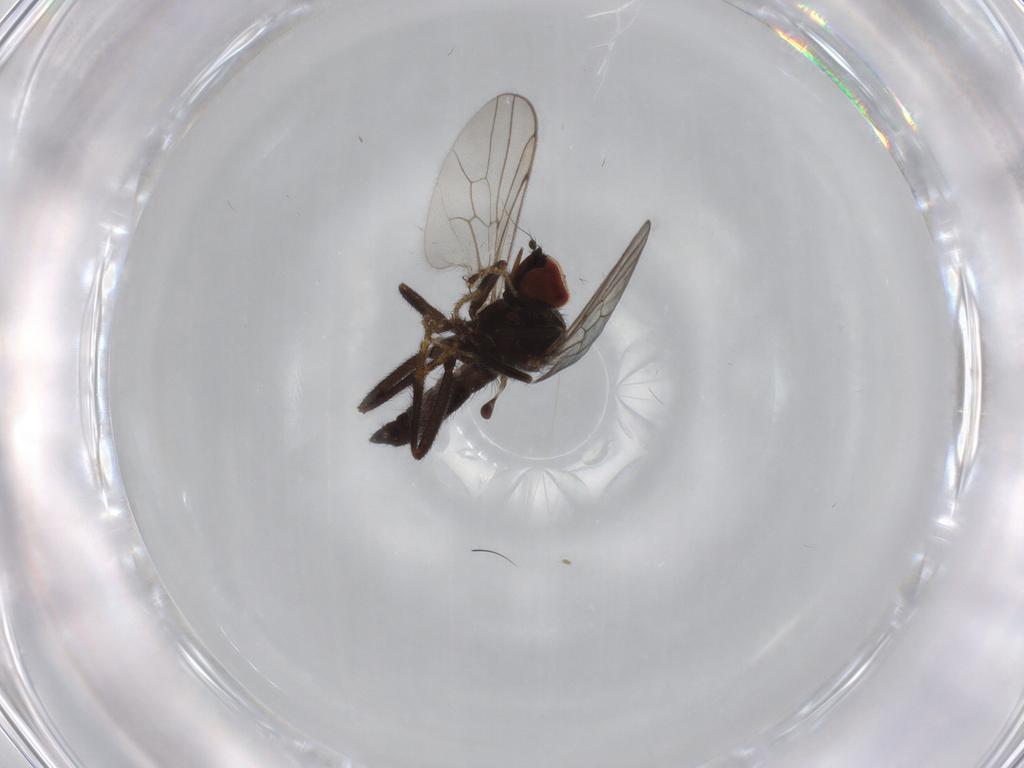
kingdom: Animalia
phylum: Arthropoda
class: Insecta
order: Diptera
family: Hybotidae
